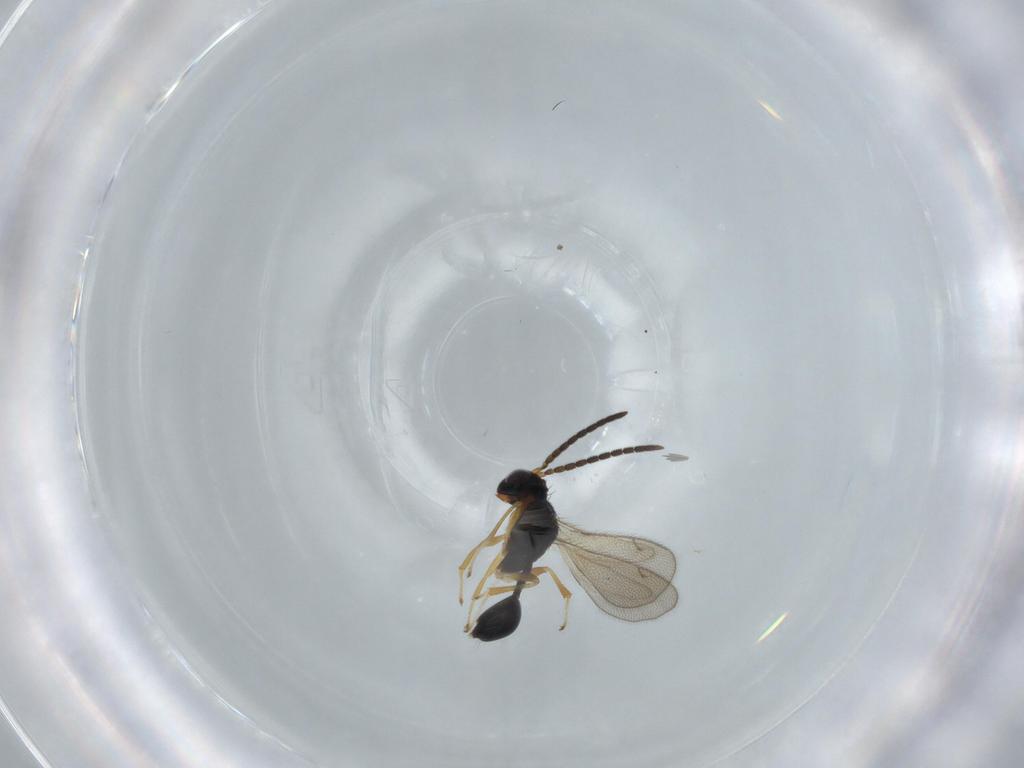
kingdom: Animalia
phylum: Arthropoda
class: Insecta
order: Hymenoptera
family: Diparidae
